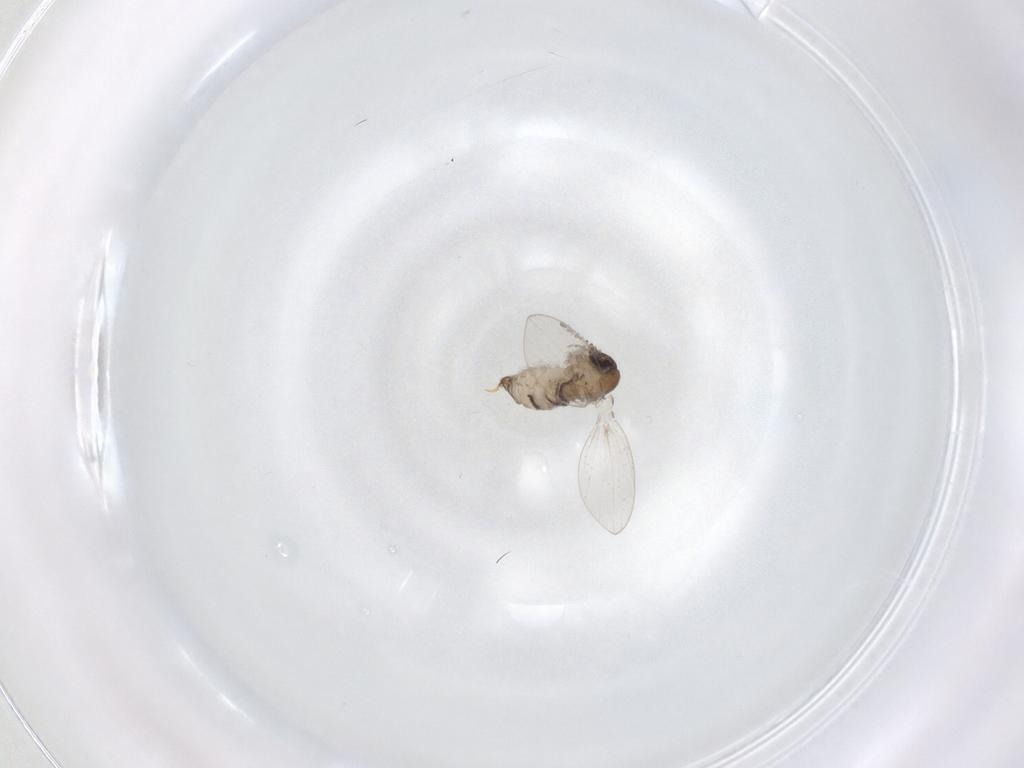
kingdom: Animalia
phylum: Arthropoda
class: Insecta
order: Diptera
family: Psychodidae
